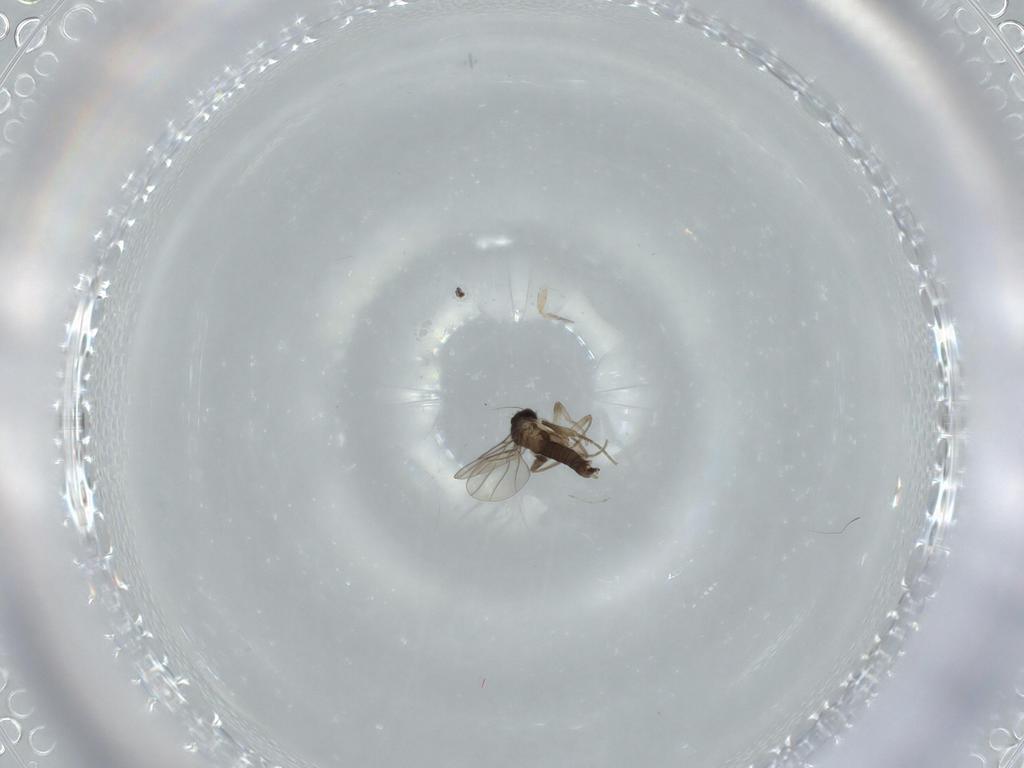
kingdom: Animalia
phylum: Arthropoda
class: Insecta
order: Diptera
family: Phoridae
